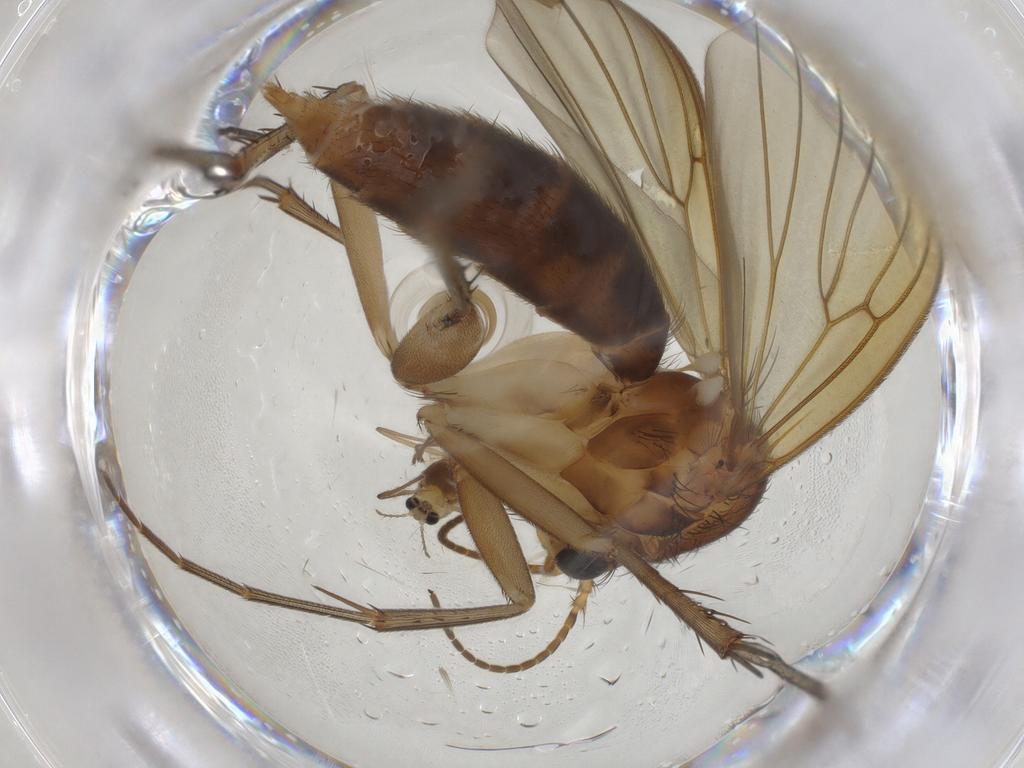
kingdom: Animalia
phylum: Arthropoda
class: Insecta
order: Diptera
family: Chironomidae
